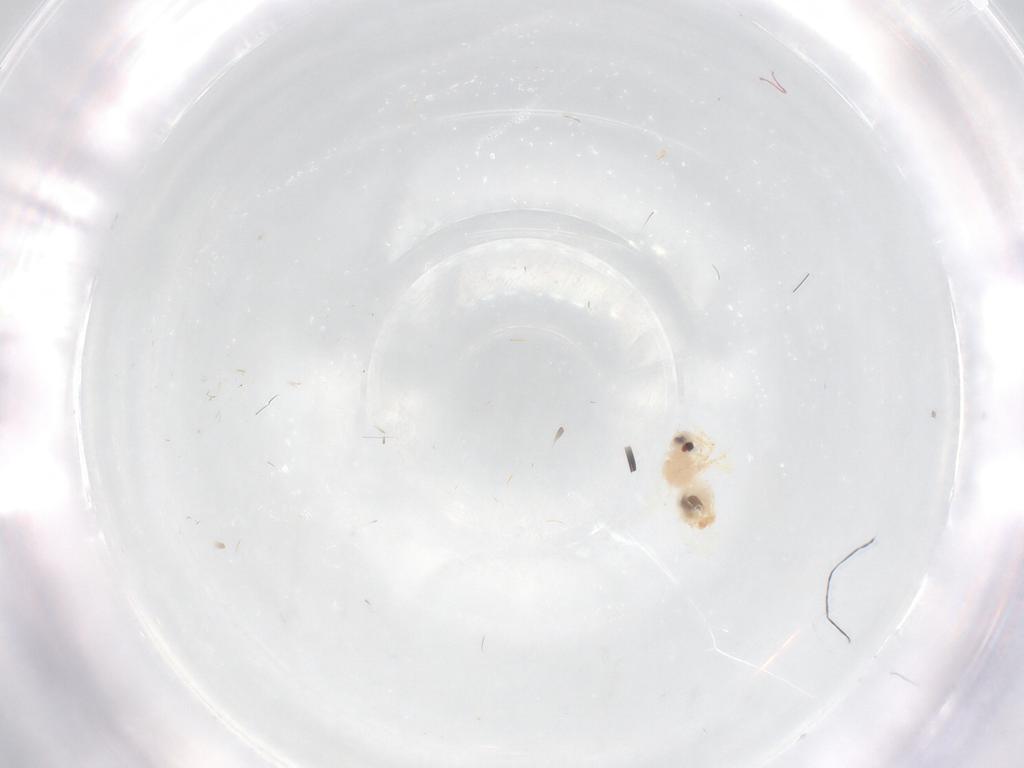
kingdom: Animalia
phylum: Arthropoda
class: Insecta
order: Hemiptera
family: Aleyrodidae
